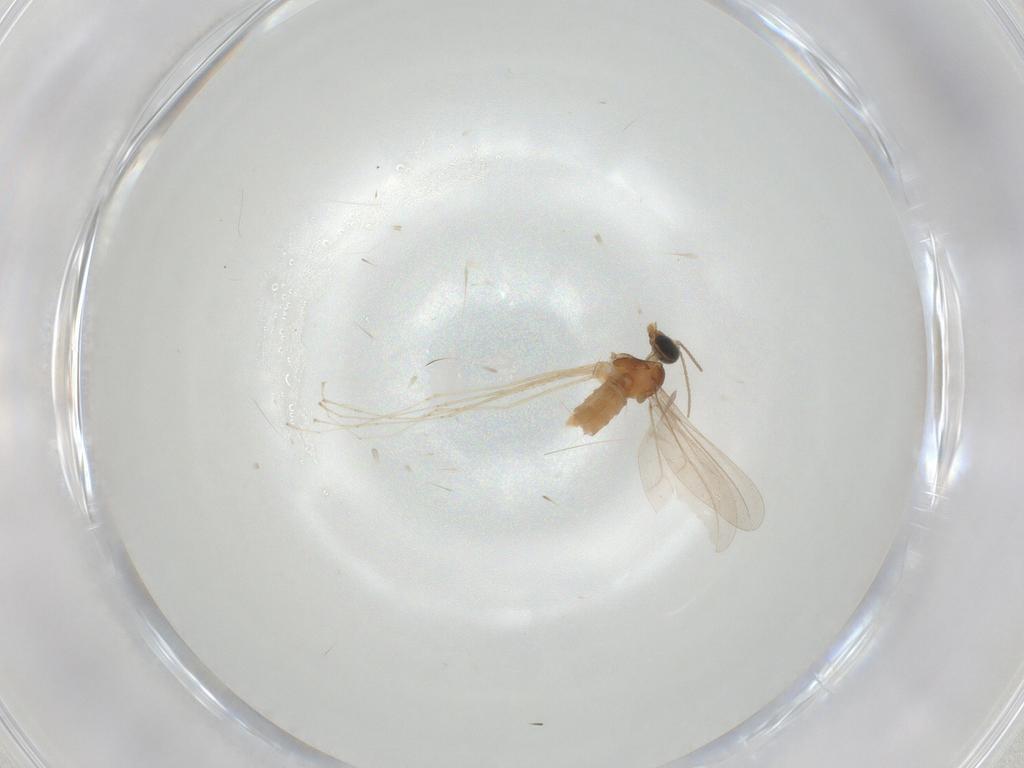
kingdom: Animalia
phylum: Arthropoda
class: Insecta
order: Diptera
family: Cecidomyiidae
